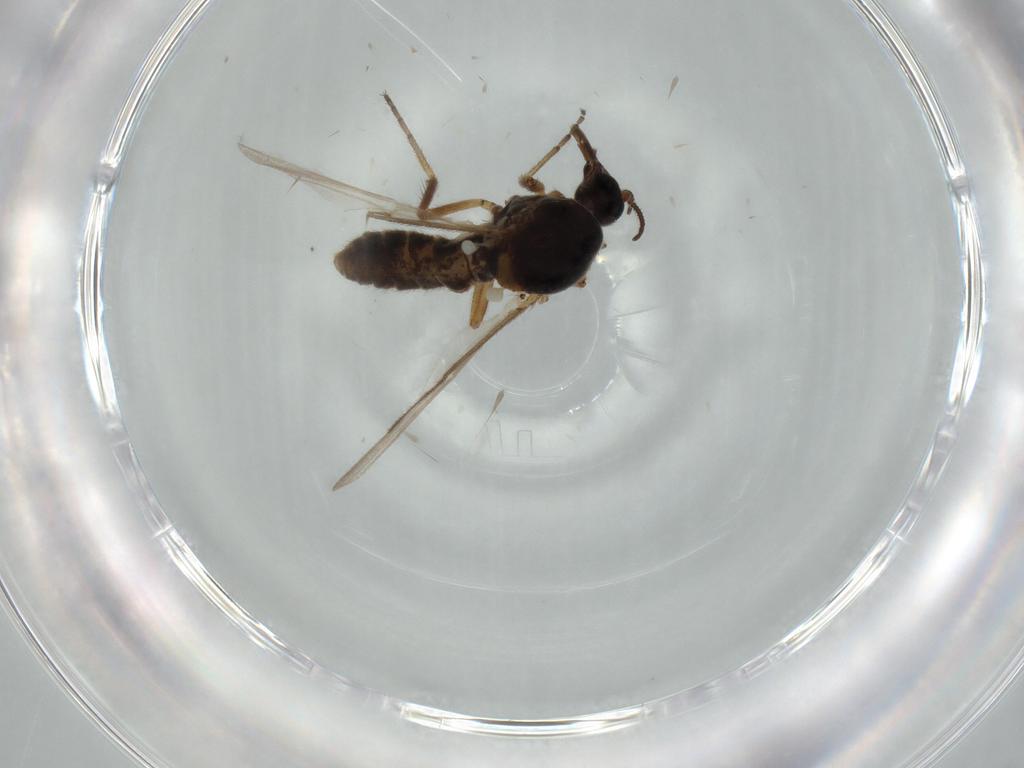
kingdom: Animalia
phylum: Arthropoda
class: Insecta
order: Diptera
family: Ceratopogonidae
